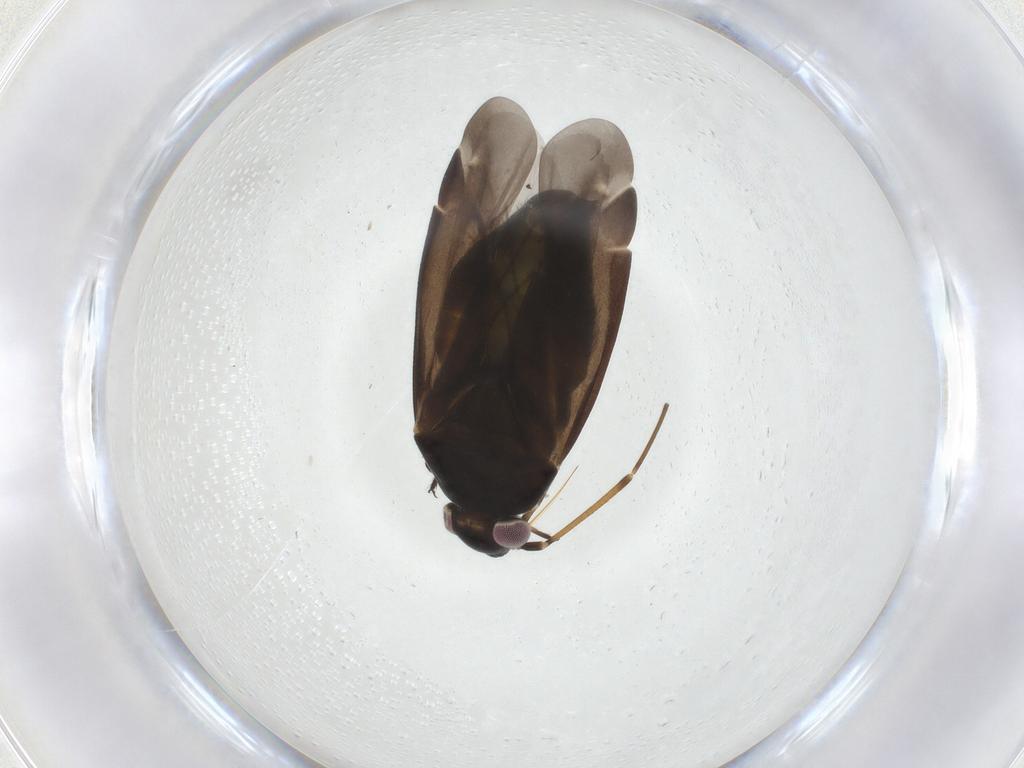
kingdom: Animalia
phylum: Arthropoda
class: Insecta
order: Hemiptera
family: Miridae
